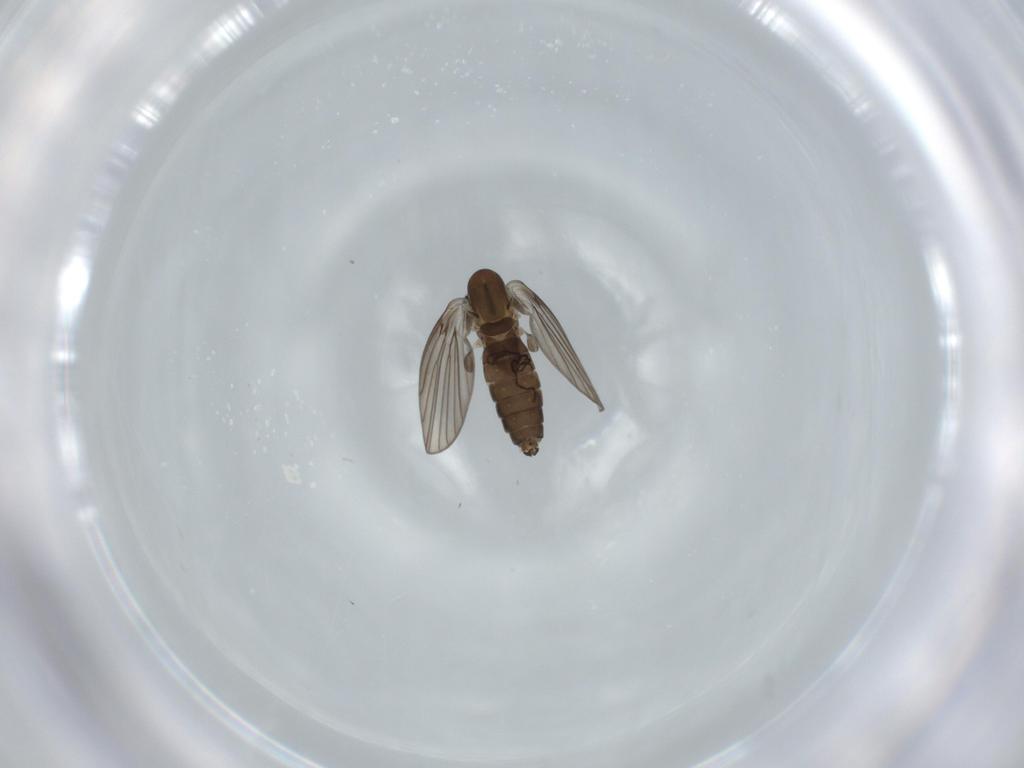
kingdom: Animalia
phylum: Arthropoda
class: Insecta
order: Diptera
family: Psychodidae
